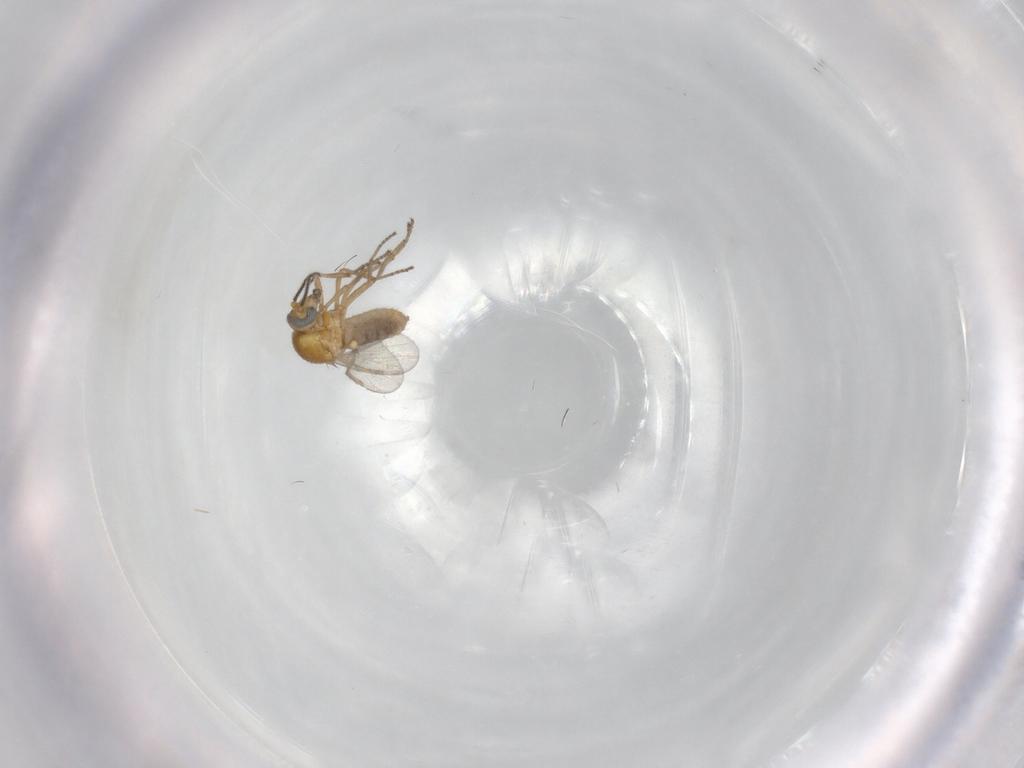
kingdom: Animalia
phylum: Arthropoda
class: Insecta
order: Diptera
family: Ceratopogonidae
